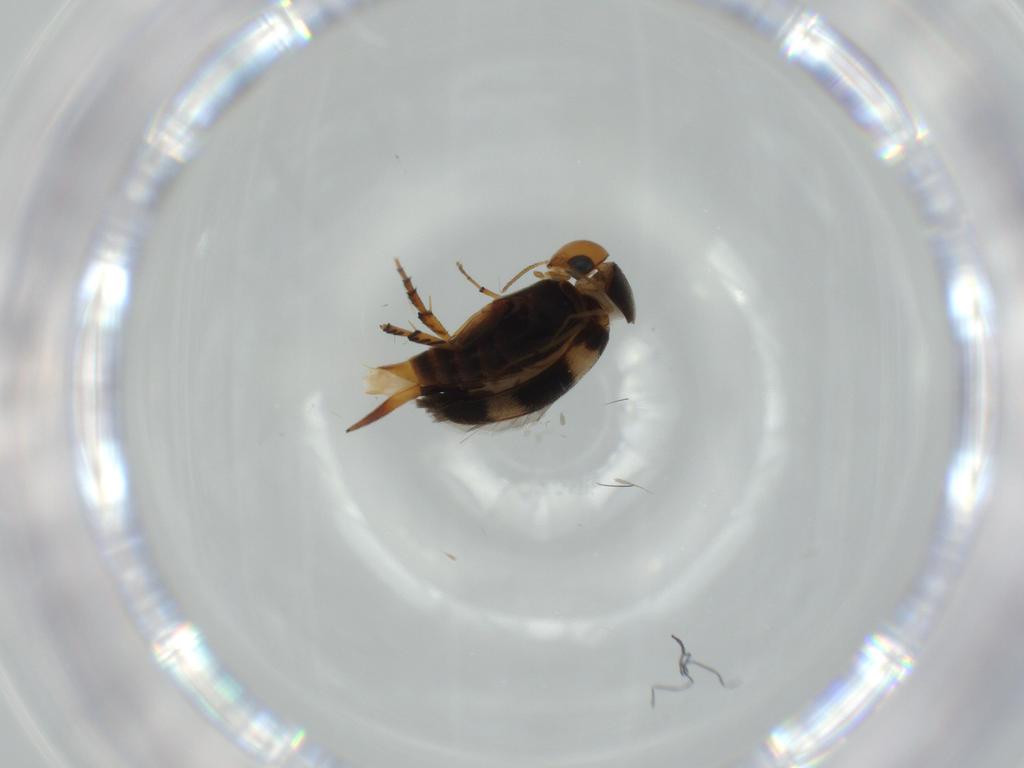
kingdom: Animalia
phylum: Arthropoda
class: Insecta
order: Coleoptera
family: Mordellidae
